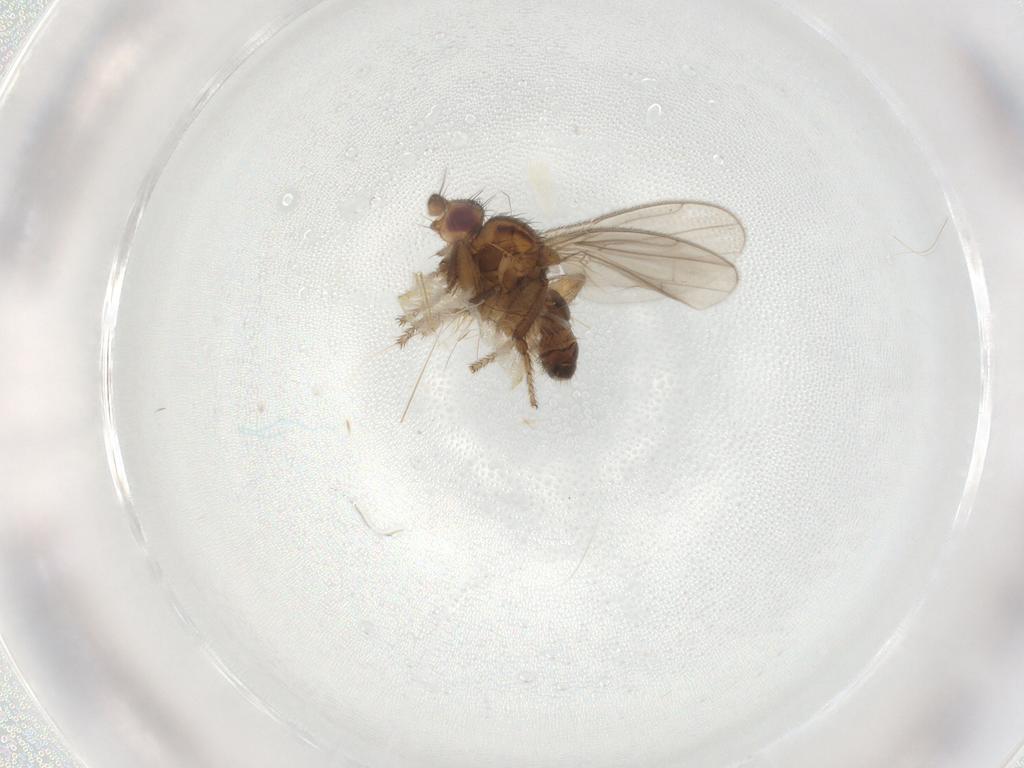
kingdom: Animalia
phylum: Arthropoda
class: Insecta
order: Diptera
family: Sphaeroceridae
